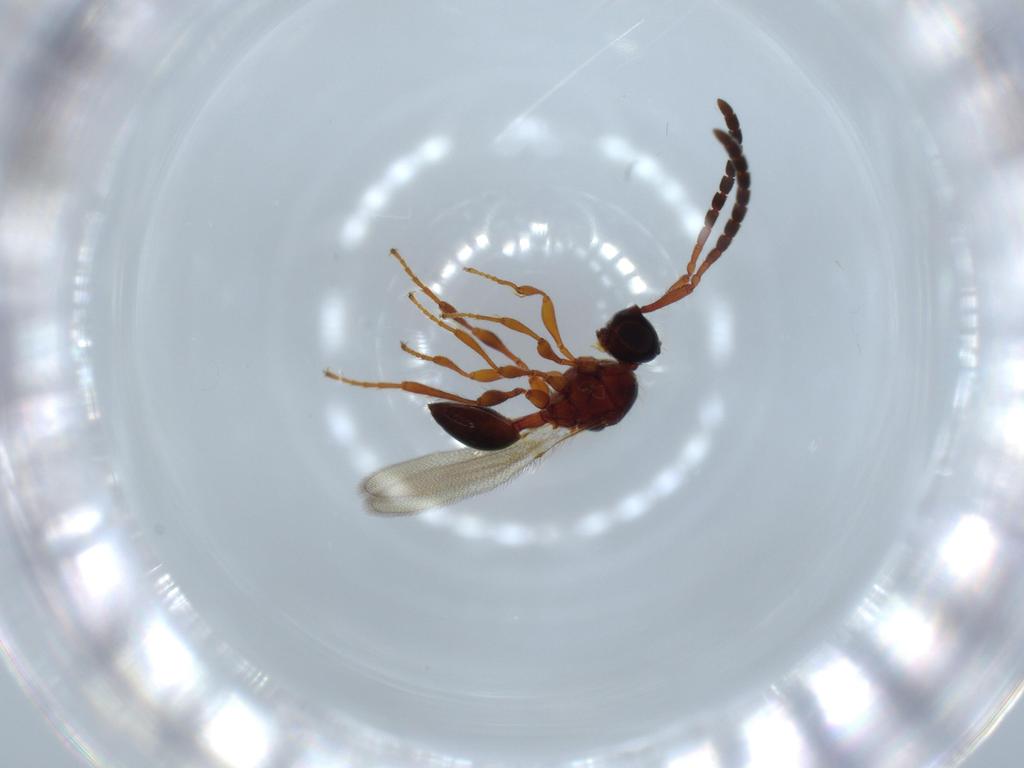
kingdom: Animalia
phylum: Arthropoda
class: Insecta
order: Hymenoptera
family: Diapriidae
